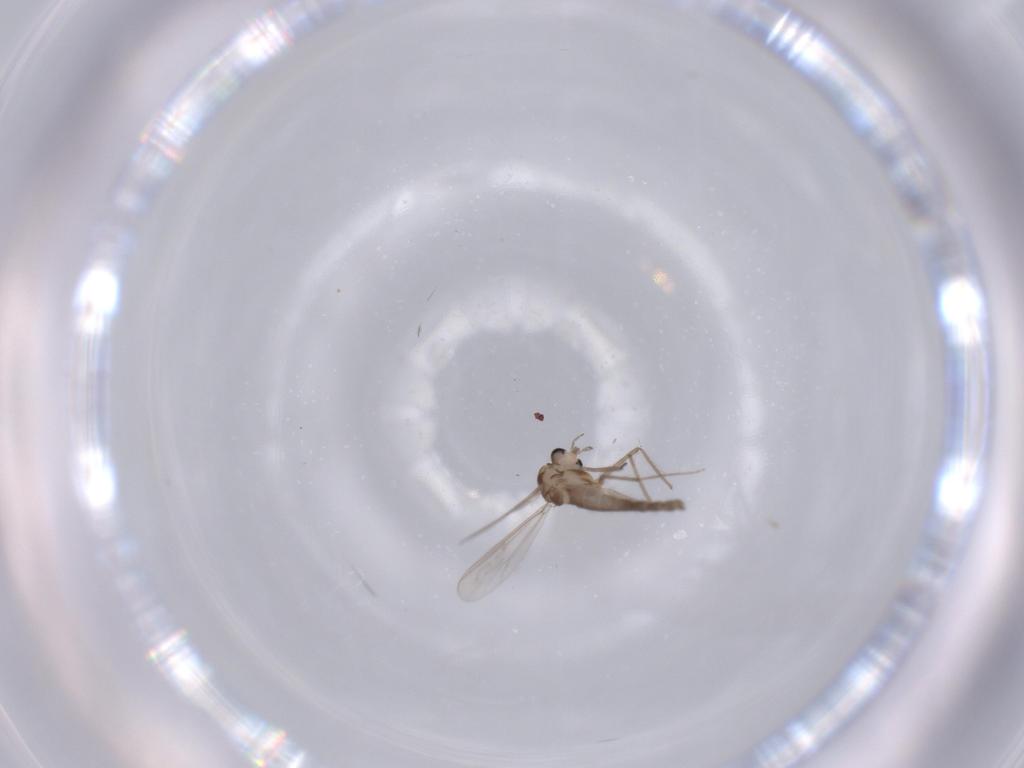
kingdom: Animalia
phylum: Arthropoda
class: Insecta
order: Diptera
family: Chironomidae
